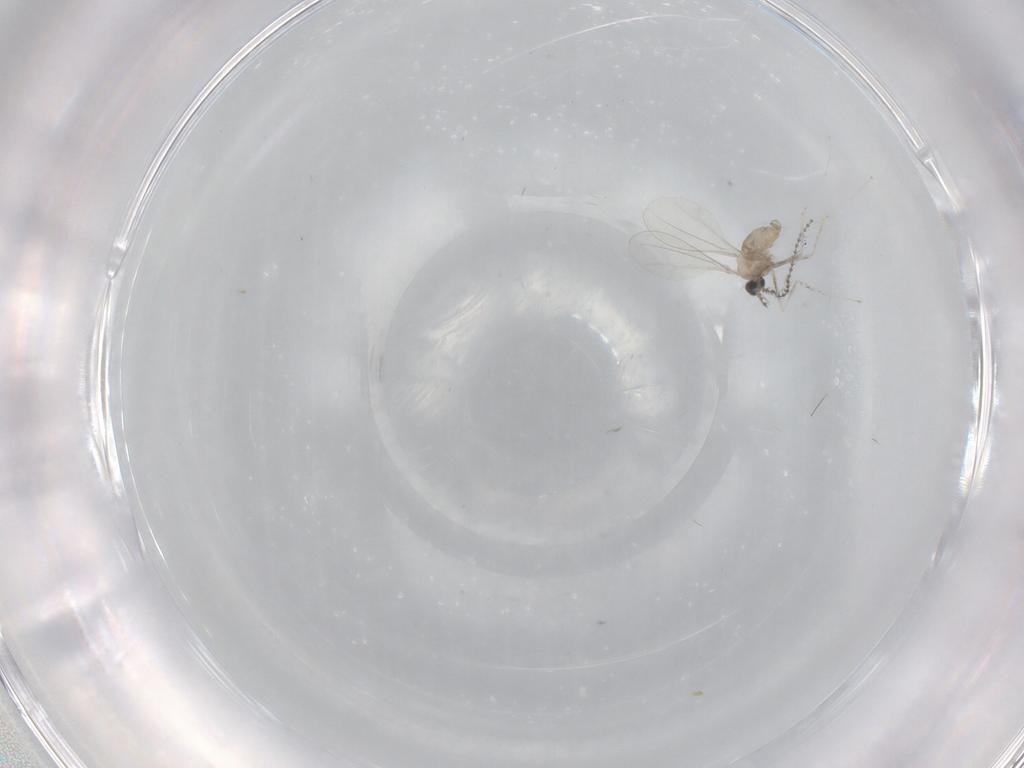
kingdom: Animalia
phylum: Arthropoda
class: Insecta
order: Diptera
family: Cecidomyiidae
